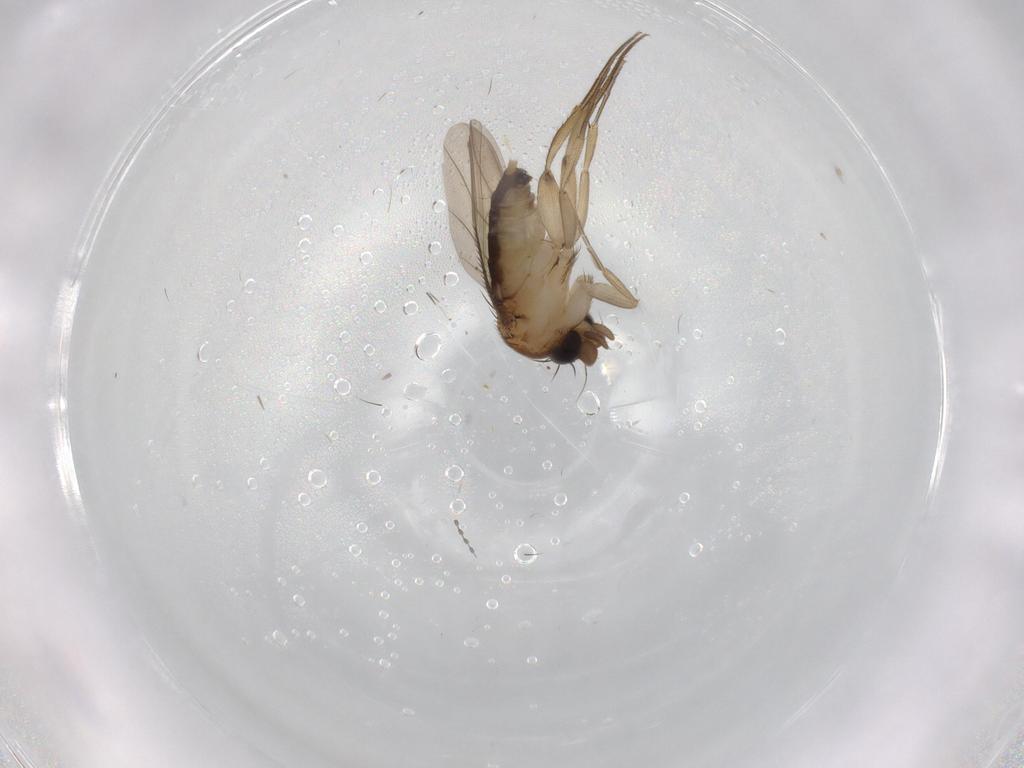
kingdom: Animalia
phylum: Arthropoda
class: Insecta
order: Diptera
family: Phoridae
